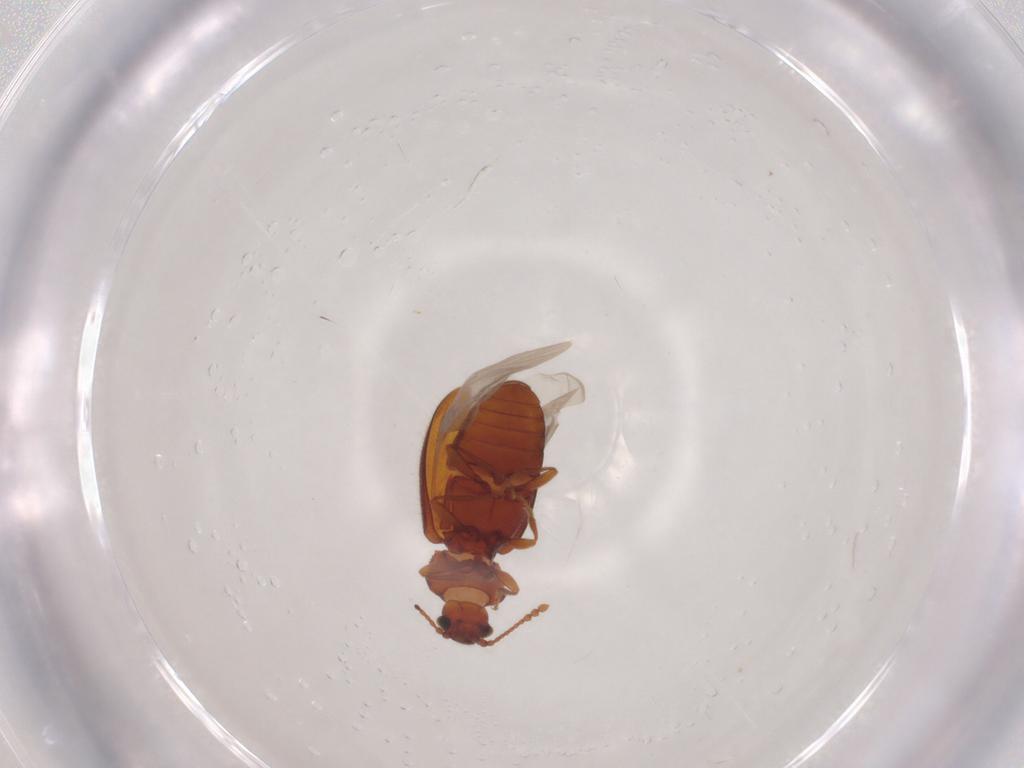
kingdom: Animalia
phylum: Arthropoda
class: Insecta
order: Coleoptera
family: Cryptophagidae
